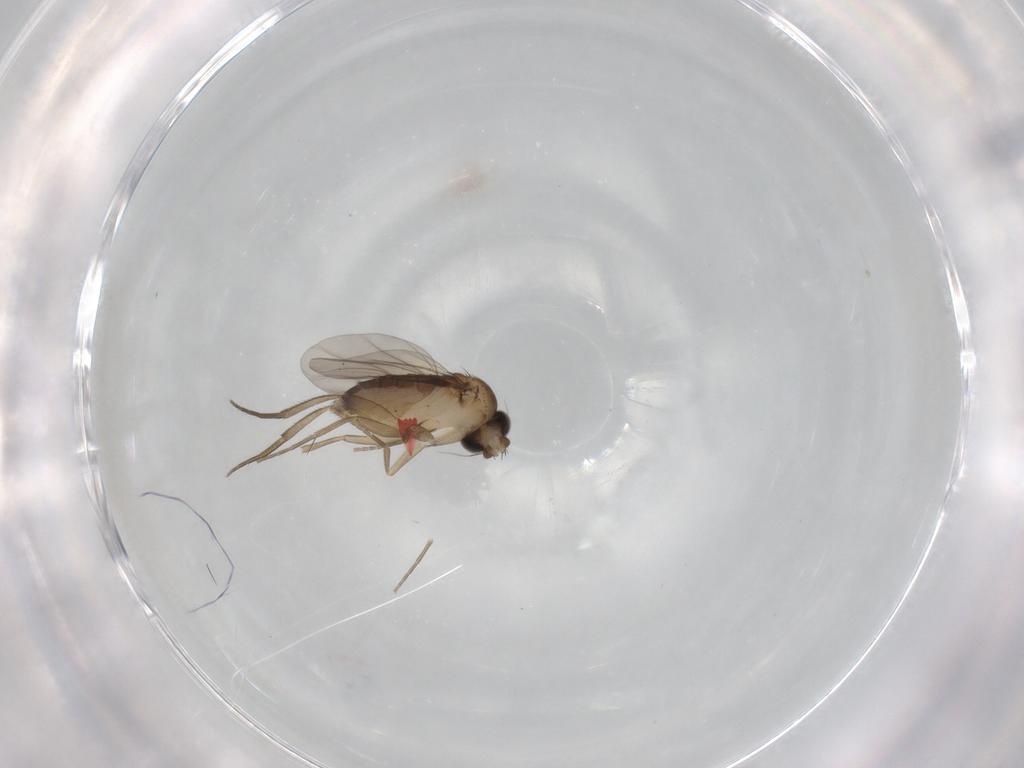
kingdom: Animalia
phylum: Arthropoda
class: Insecta
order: Diptera
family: Phoridae
